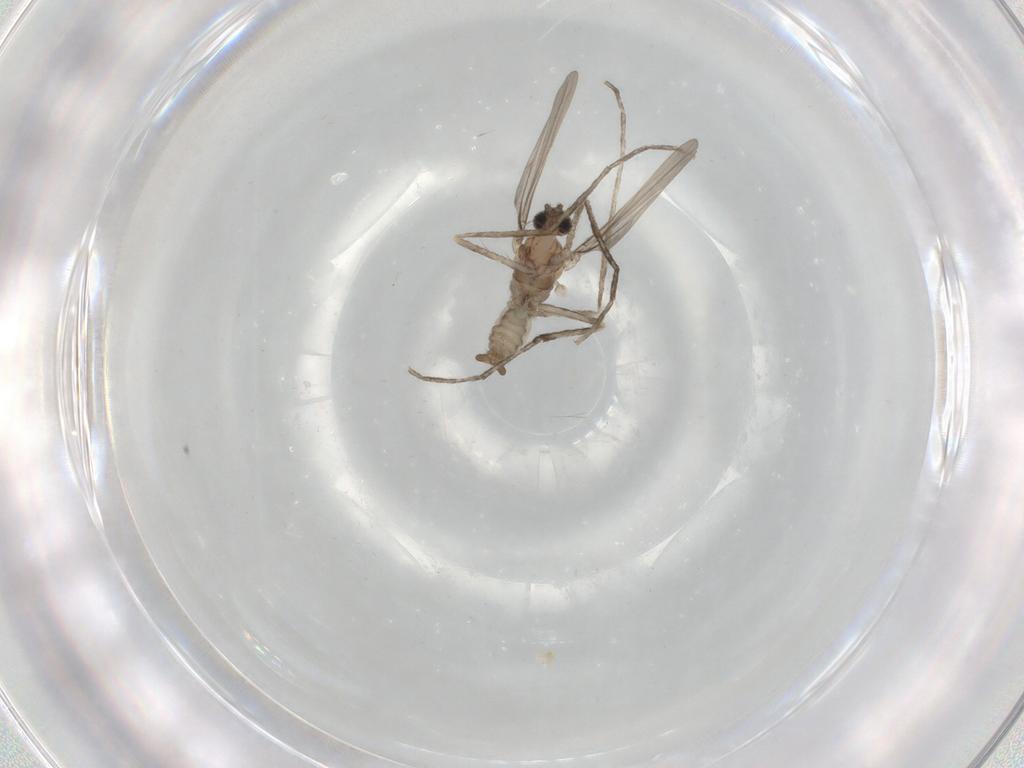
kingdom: Animalia
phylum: Arthropoda
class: Insecta
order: Diptera
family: Cecidomyiidae
